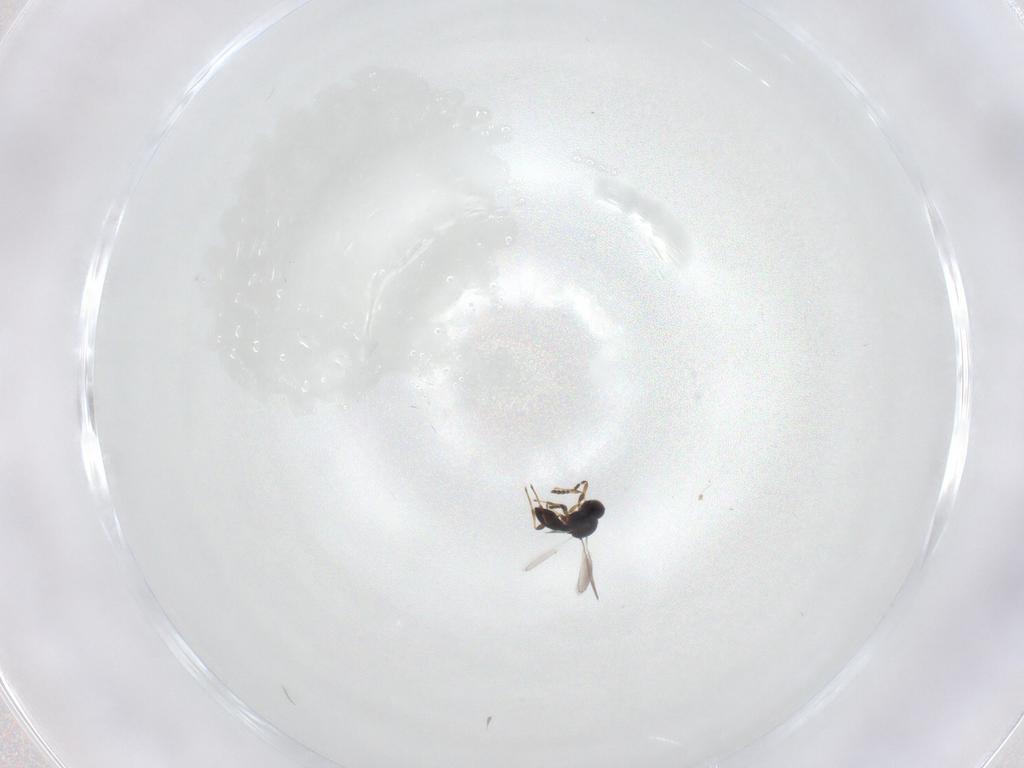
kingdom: Animalia
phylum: Arthropoda
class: Insecta
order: Hymenoptera
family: Platygastridae
